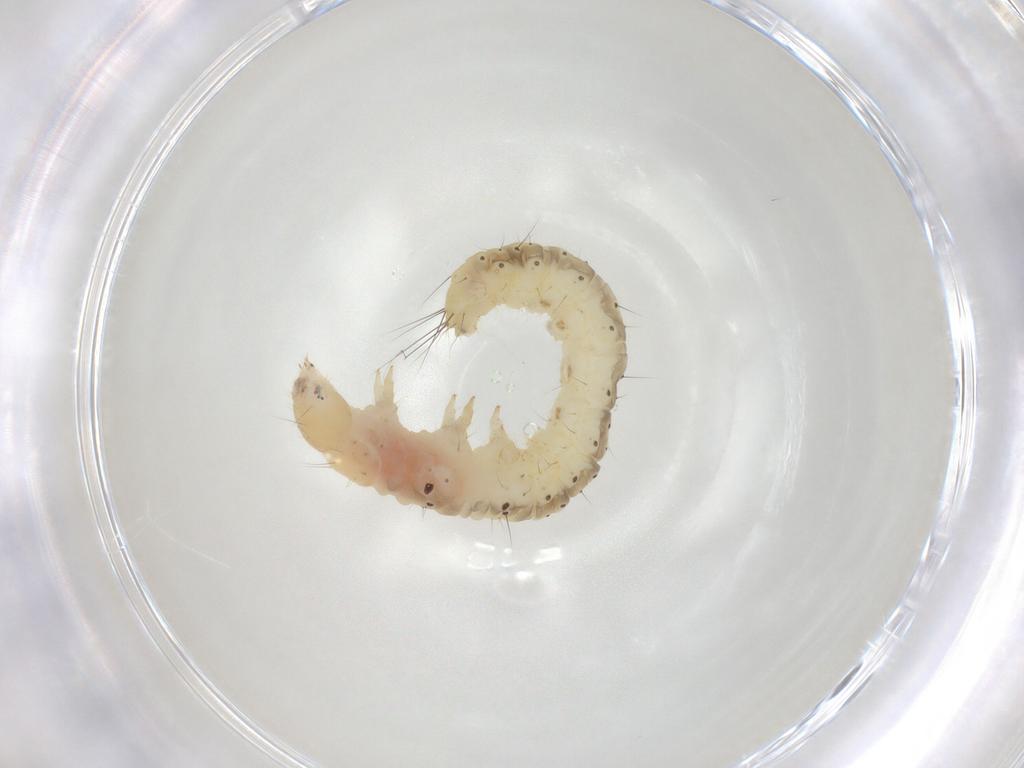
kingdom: Animalia
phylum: Arthropoda
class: Insecta
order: Lepidoptera
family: Gelechiidae
